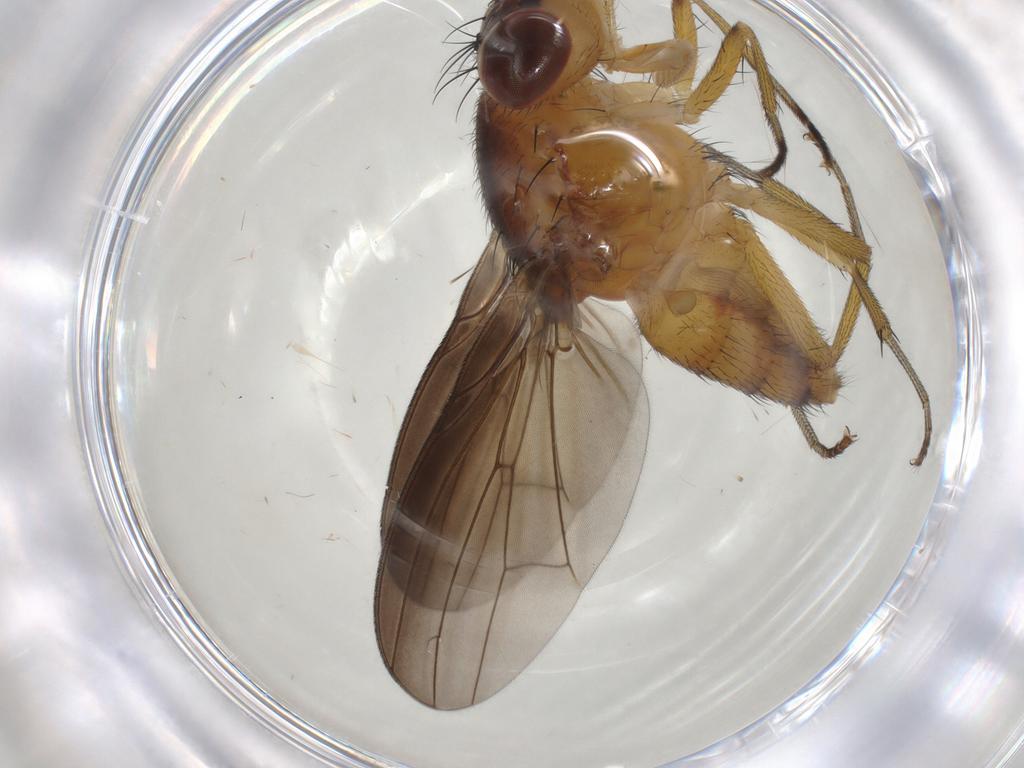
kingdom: Animalia
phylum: Arthropoda
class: Insecta
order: Diptera
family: Lauxaniidae
